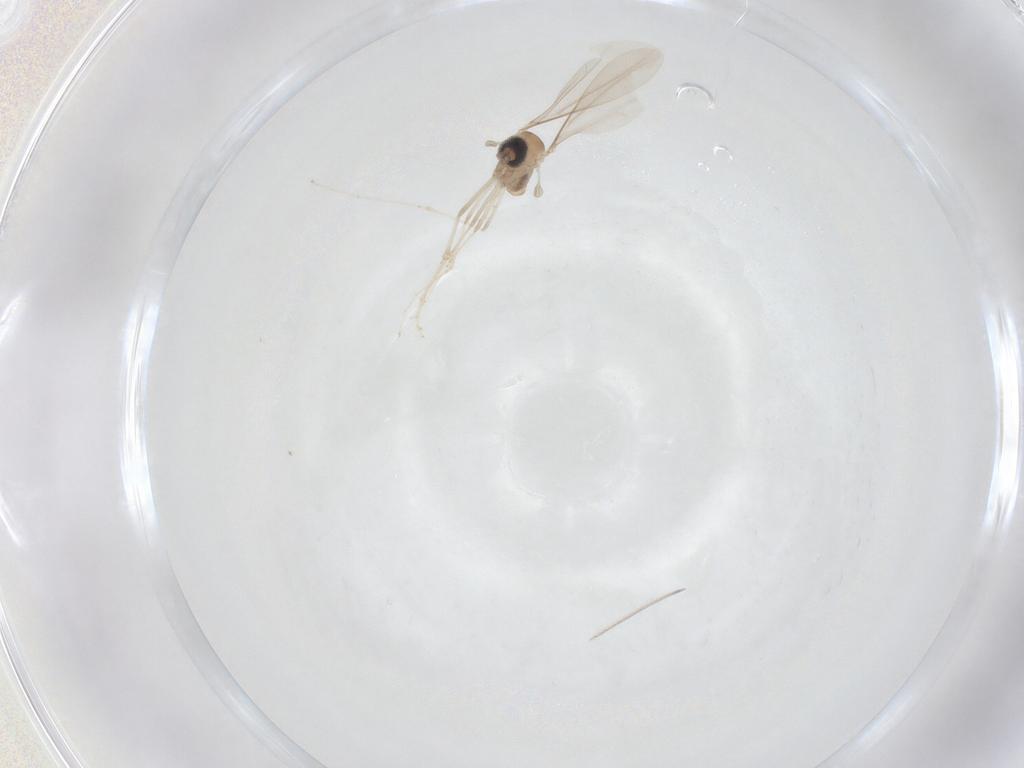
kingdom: Animalia
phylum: Arthropoda
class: Insecta
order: Diptera
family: Cecidomyiidae
